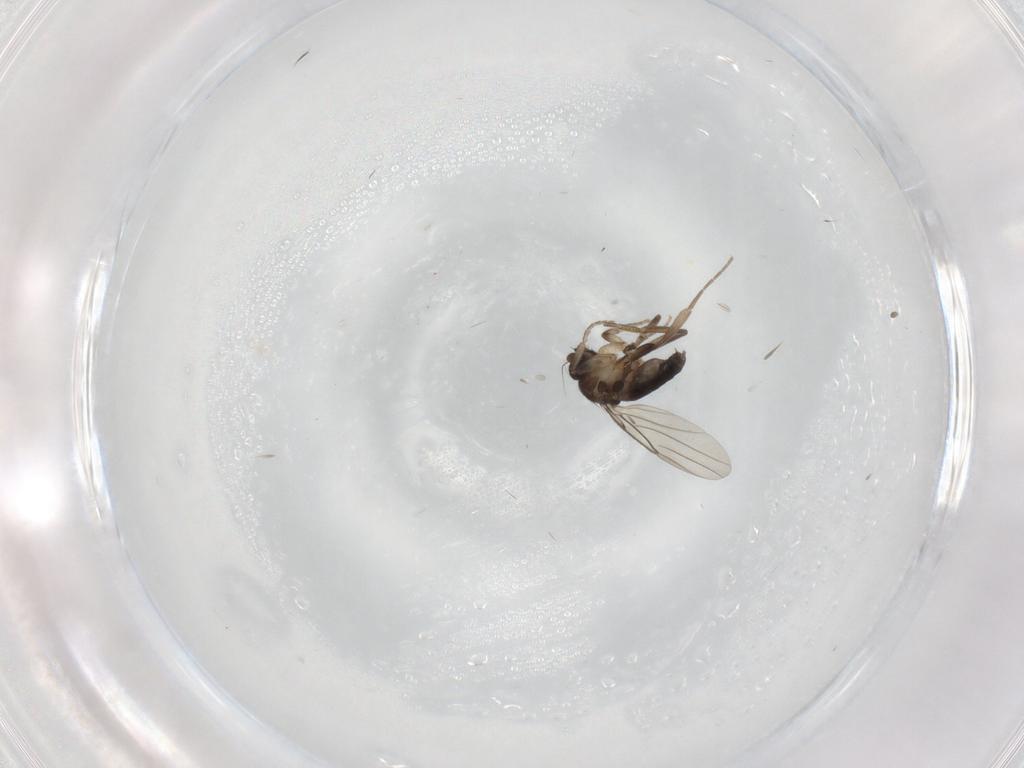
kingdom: Animalia
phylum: Arthropoda
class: Insecta
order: Diptera
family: Phoridae
